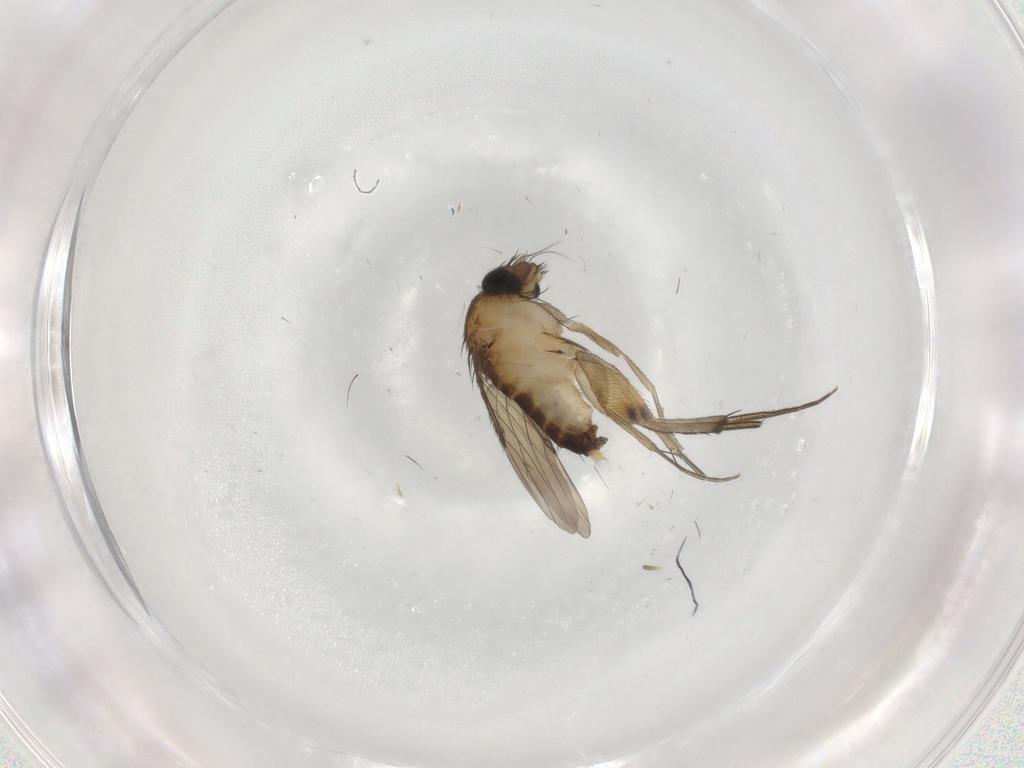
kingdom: Animalia
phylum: Arthropoda
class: Insecta
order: Diptera
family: Phoridae
